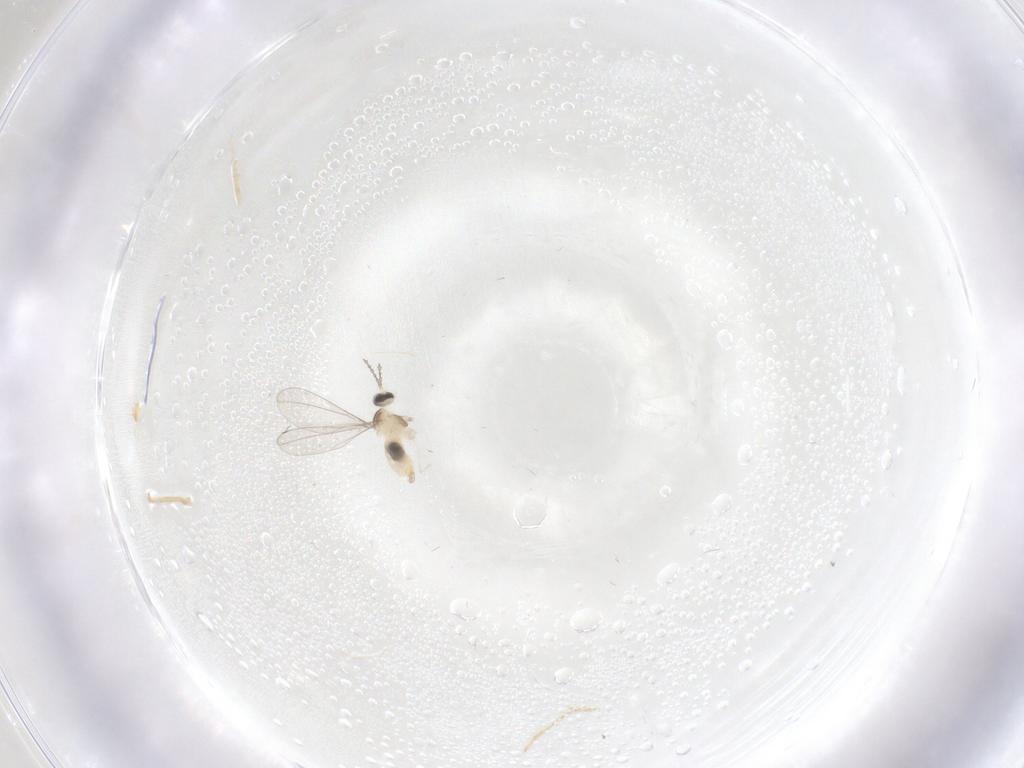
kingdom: Animalia
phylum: Arthropoda
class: Insecta
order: Diptera
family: Cecidomyiidae
